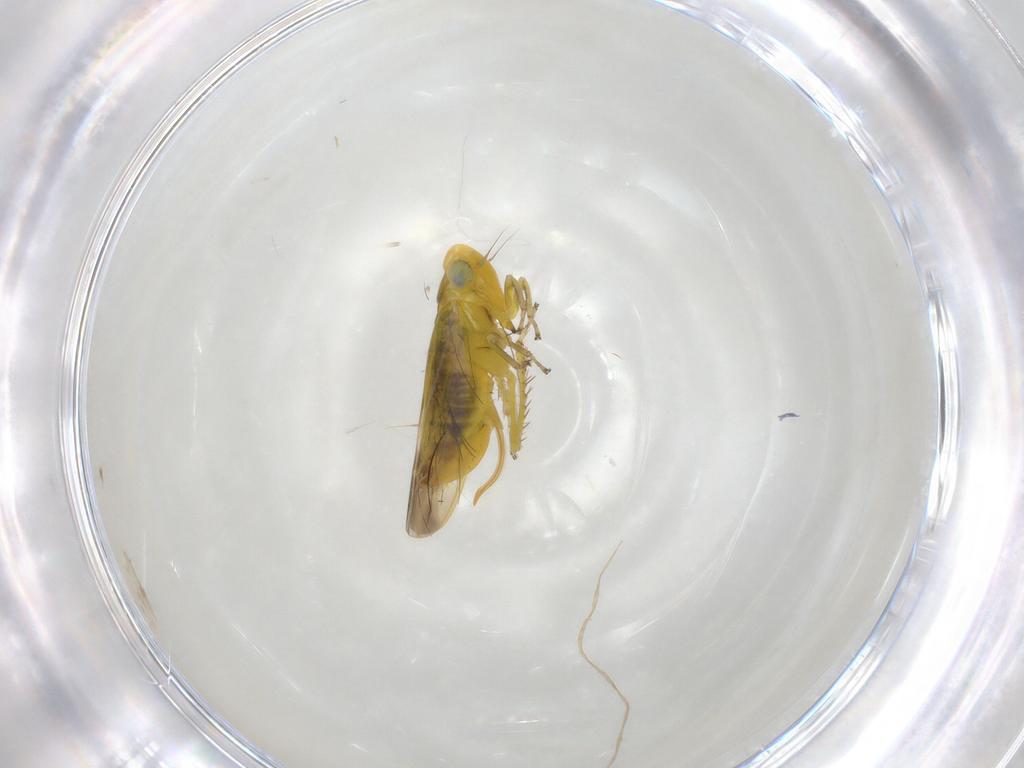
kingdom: Animalia
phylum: Arthropoda
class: Insecta
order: Hemiptera
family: Cicadellidae
